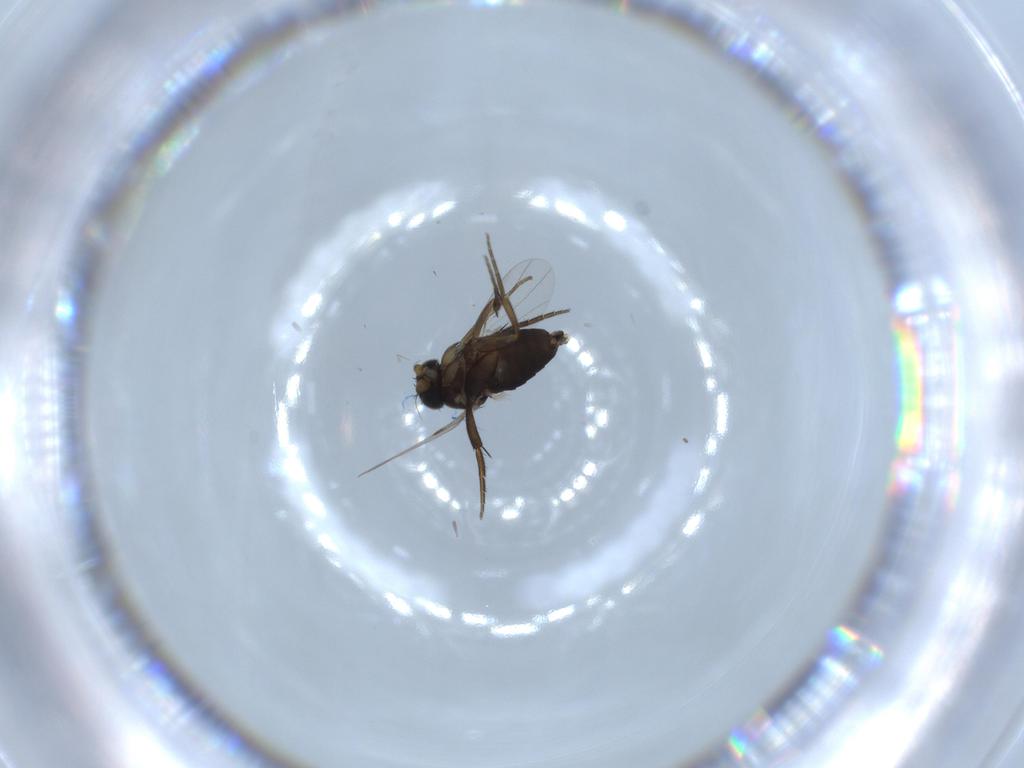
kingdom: Animalia
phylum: Arthropoda
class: Insecta
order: Diptera
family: Phoridae
